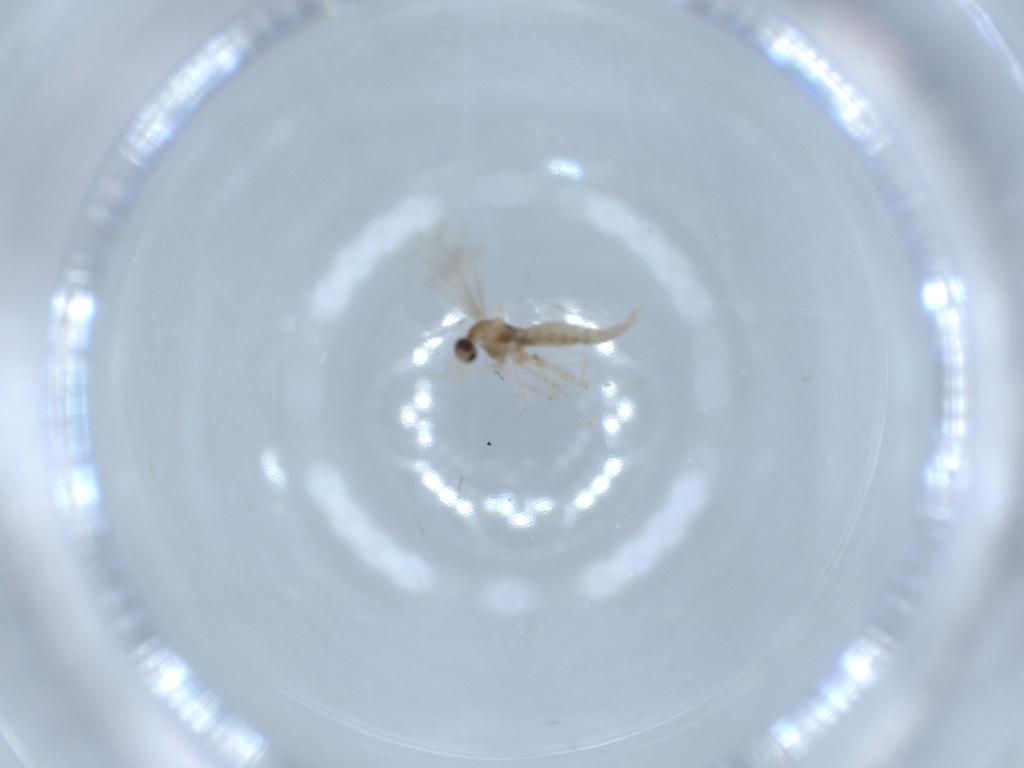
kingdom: Animalia
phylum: Arthropoda
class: Insecta
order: Diptera
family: Cecidomyiidae
